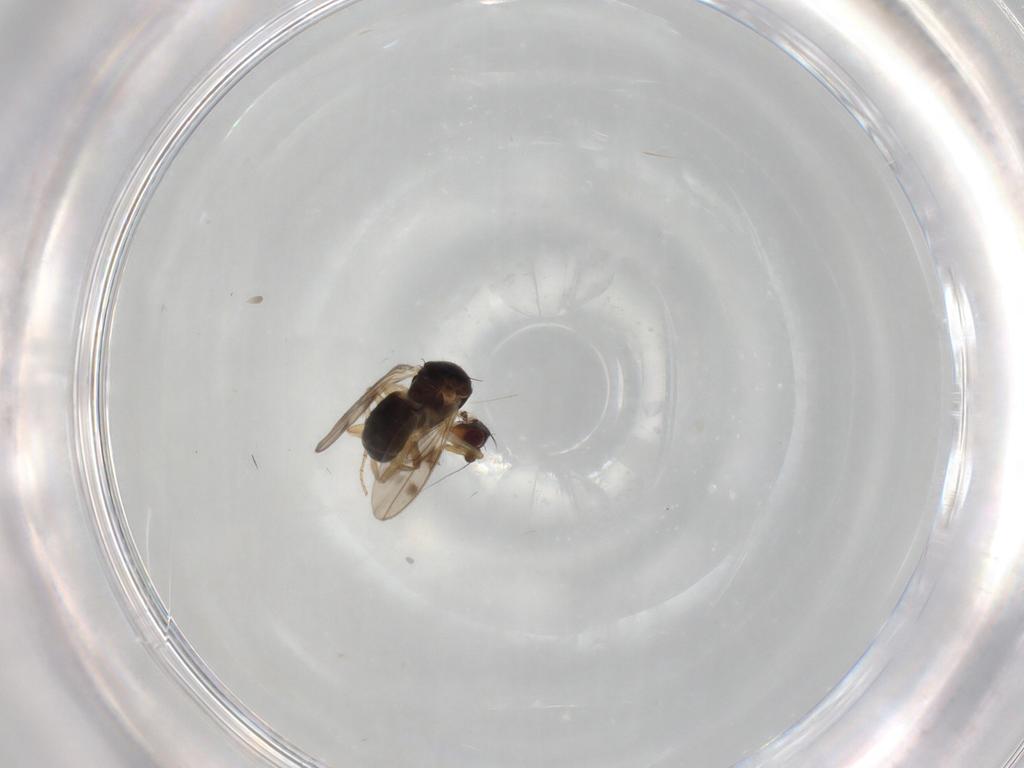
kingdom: Animalia
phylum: Arthropoda
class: Insecta
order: Diptera
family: Sphaeroceridae
